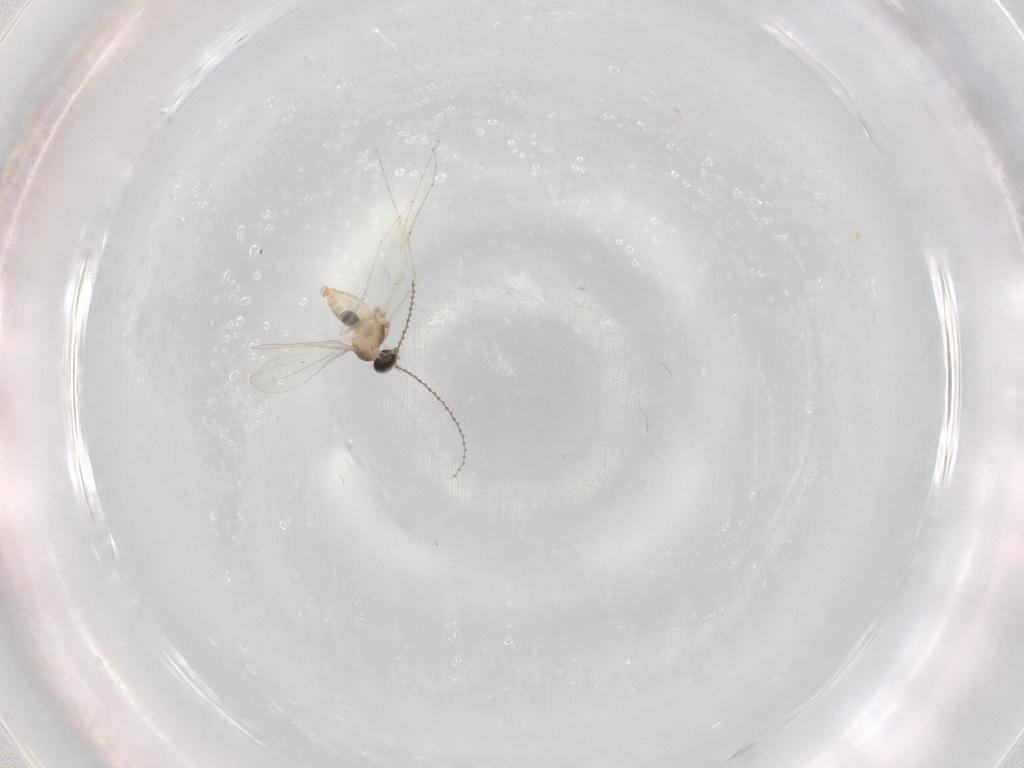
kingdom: Animalia
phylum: Arthropoda
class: Insecta
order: Diptera
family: Cecidomyiidae
